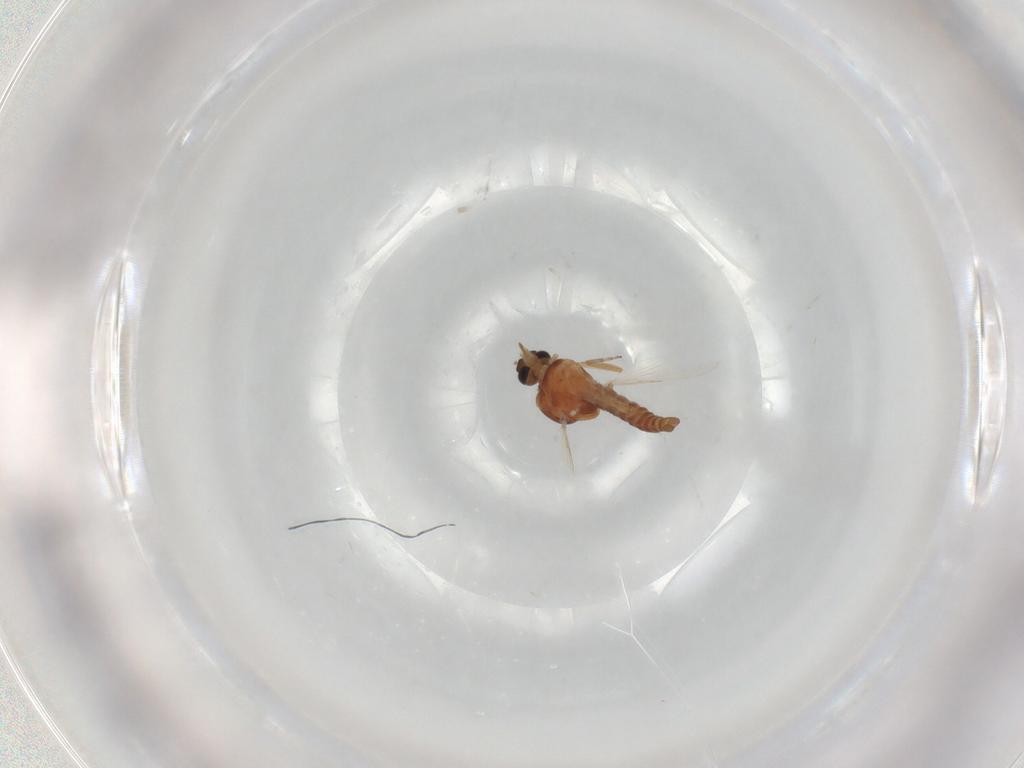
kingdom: Animalia
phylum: Arthropoda
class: Insecta
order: Diptera
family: Ceratopogonidae
